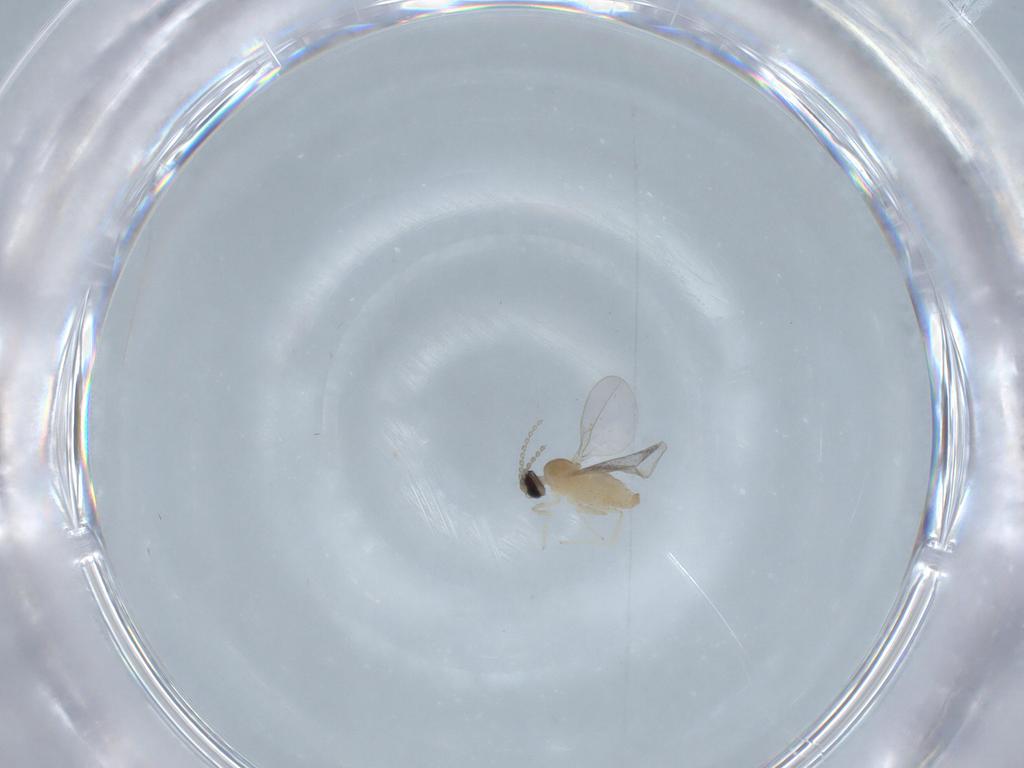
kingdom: Animalia
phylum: Arthropoda
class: Insecta
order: Diptera
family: Cecidomyiidae
